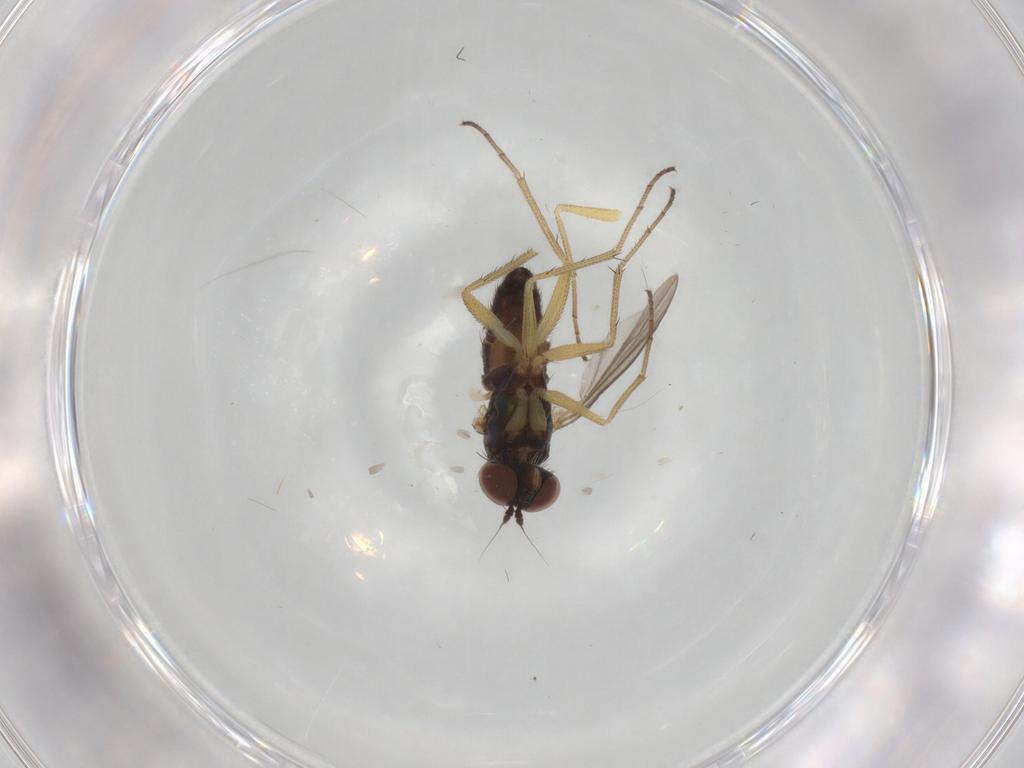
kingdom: Animalia
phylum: Arthropoda
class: Insecta
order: Diptera
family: Dolichopodidae
